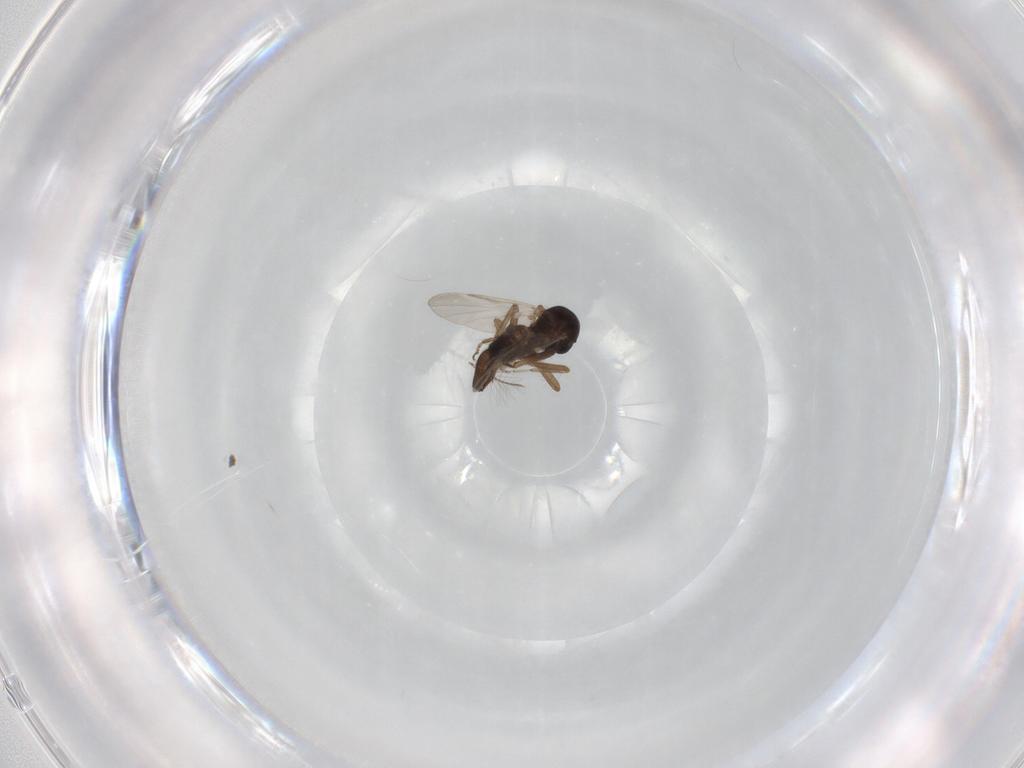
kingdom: Animalia
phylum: Arthropoda
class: Insecta
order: Diptera
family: Chironomidae
